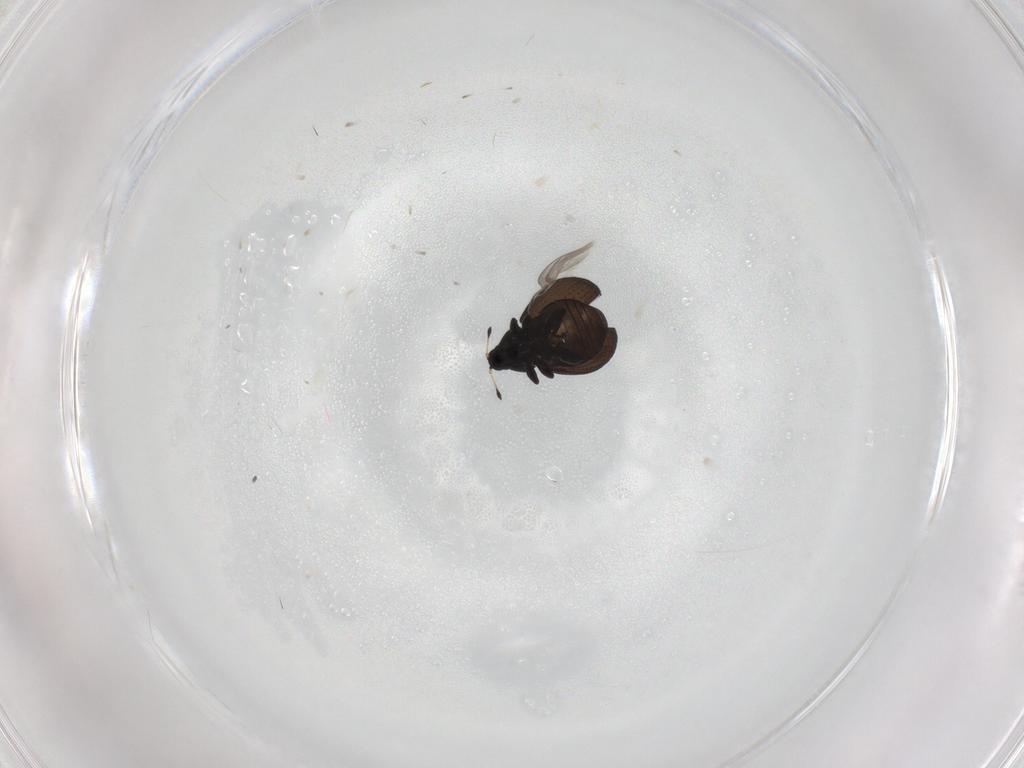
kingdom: Animalia
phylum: Arthropoda
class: Insecta
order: Coleoptera
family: Curculionidae
